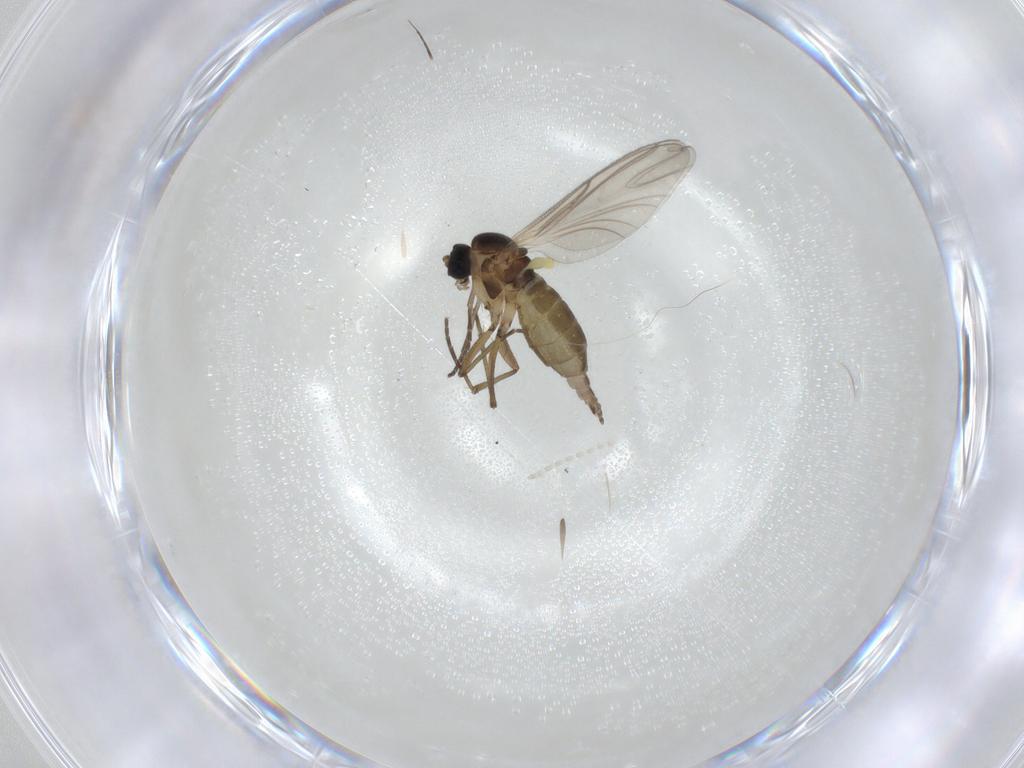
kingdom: Animalia
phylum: Arthropoda
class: Insecta
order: Diptera
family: Cecidomyiidae
